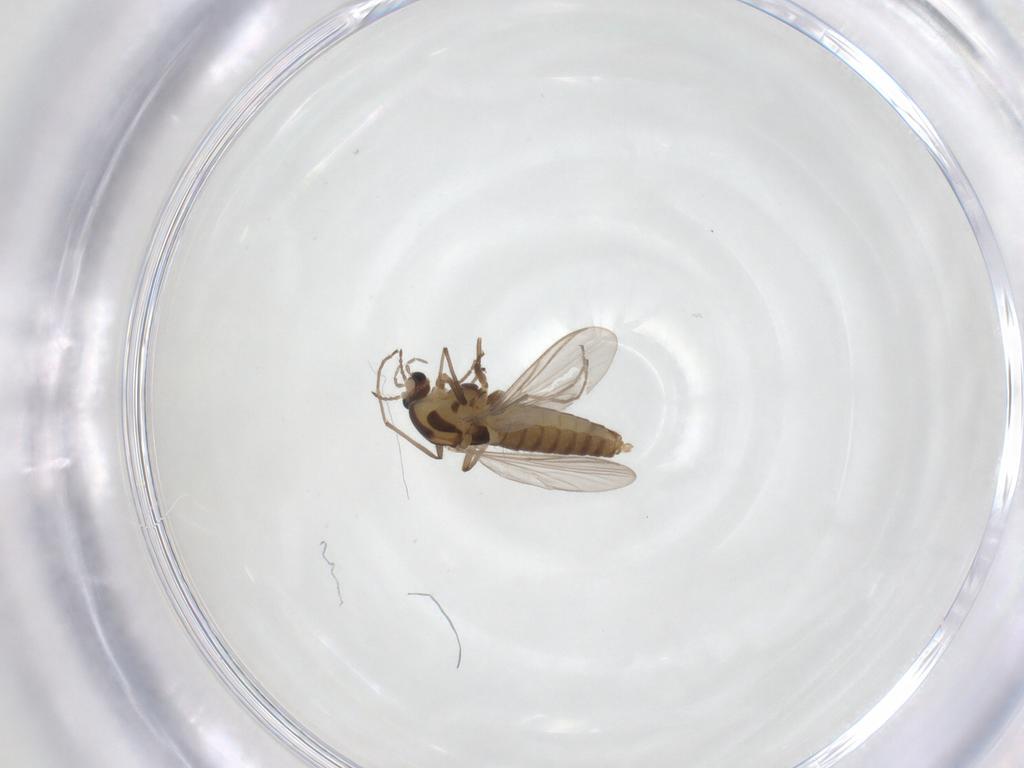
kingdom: Animalia
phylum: Arthropoda
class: Insecta
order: Diptera
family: Chironomidae
